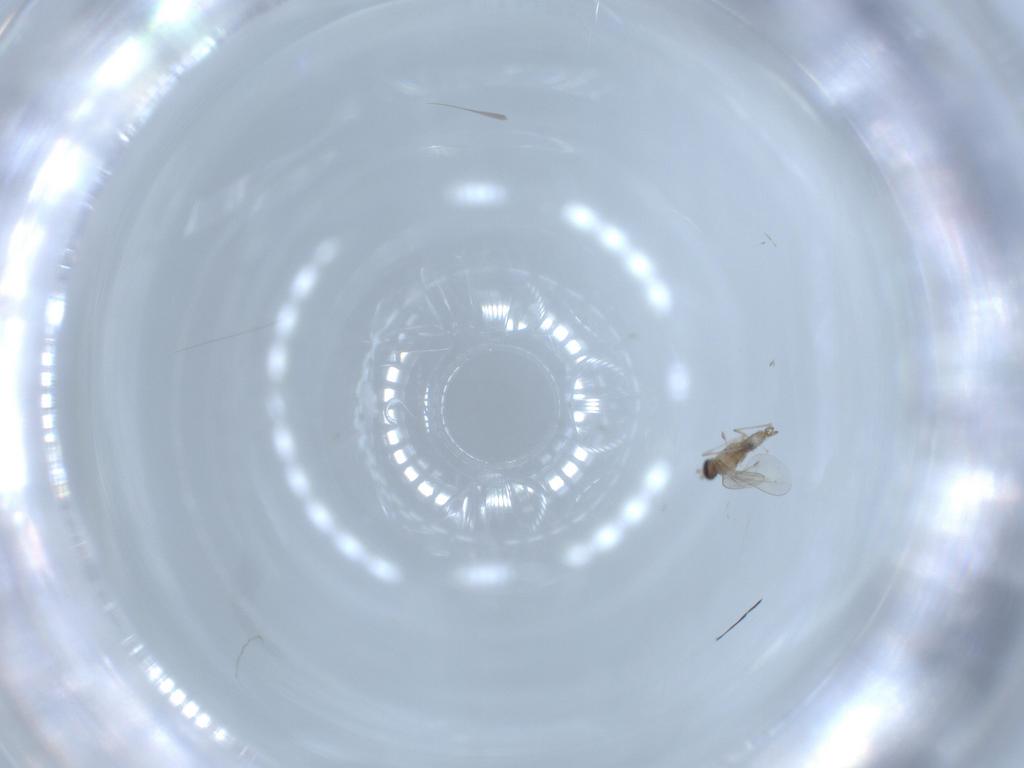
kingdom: Animalia
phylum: Arthropoda
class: Insecta
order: Diptera
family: Cecidomyiidae
